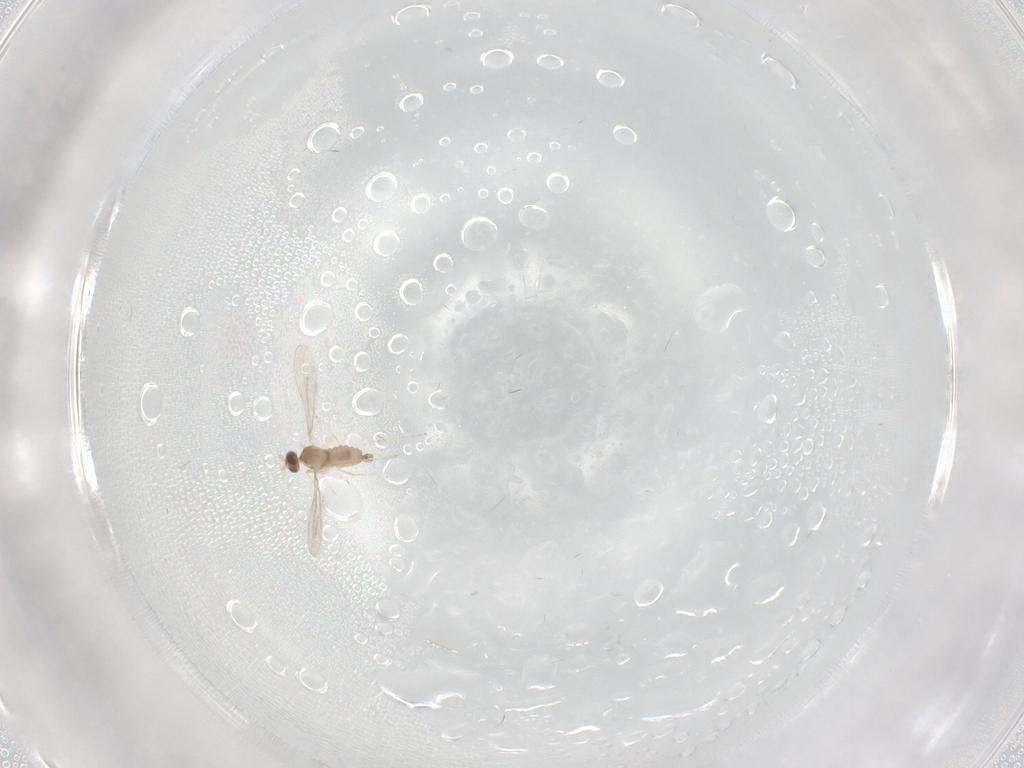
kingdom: Animalia
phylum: Arthropoda
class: Insecta
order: Diptera
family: Cecidomyiidae
